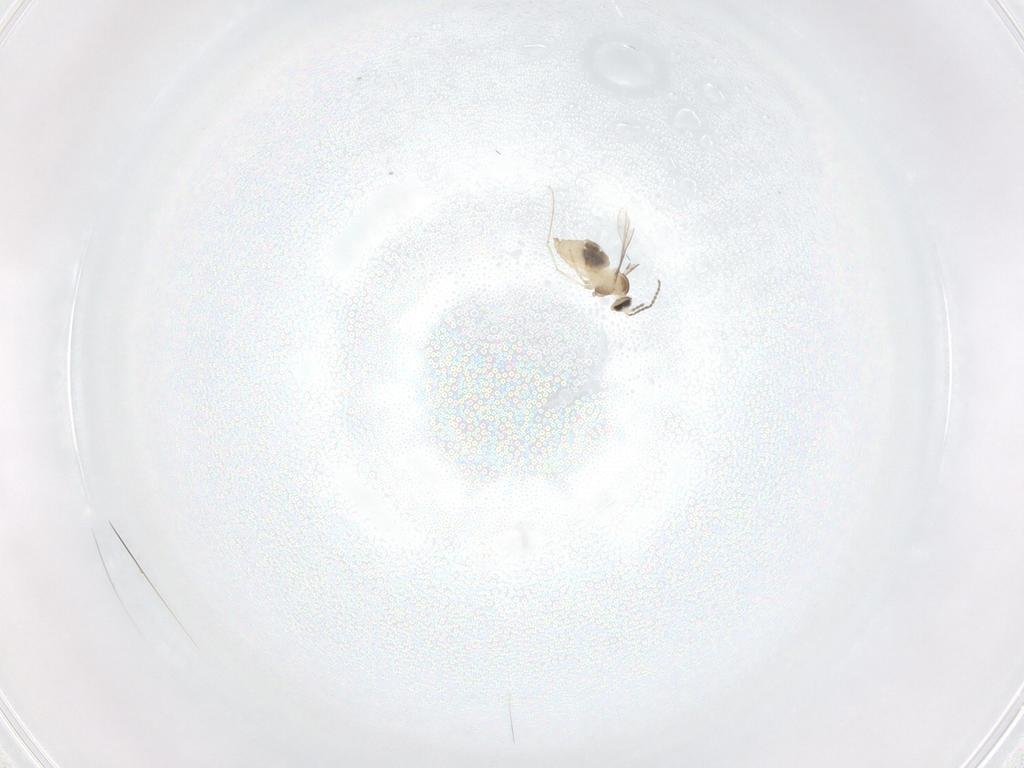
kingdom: Animalia
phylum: Arthropoda
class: Insecta
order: Diptera
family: Cecidomyiidae
